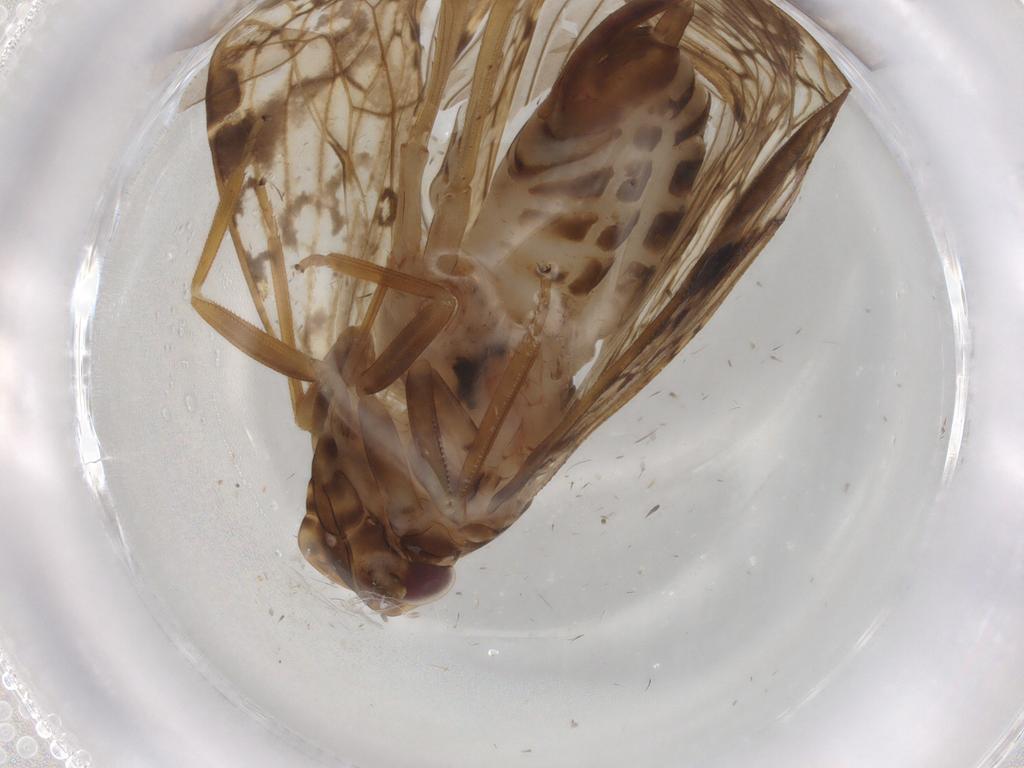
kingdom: Animalia
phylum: Arthropoda
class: Insecta
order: Hemiptera
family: Cixiidae
